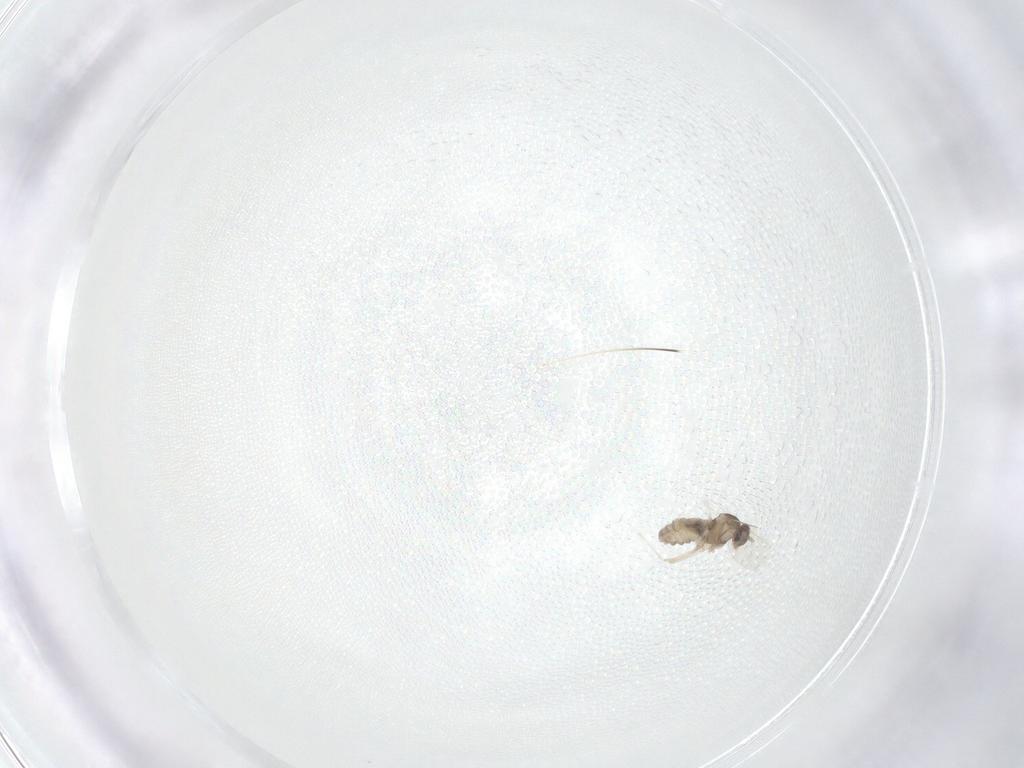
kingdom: Animalia
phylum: Arthropoda
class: Insecta
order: Diptera
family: Cecidomyiidae
